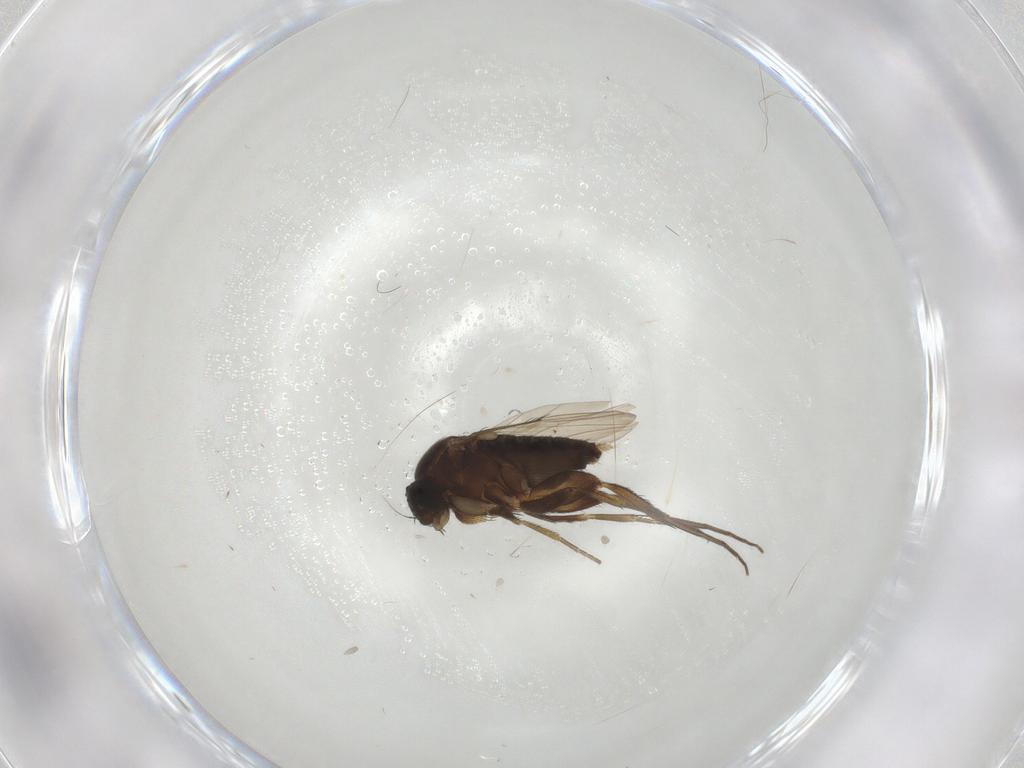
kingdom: Animalia
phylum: Arthropoda
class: Insecta
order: Diptera
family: Phoridae
